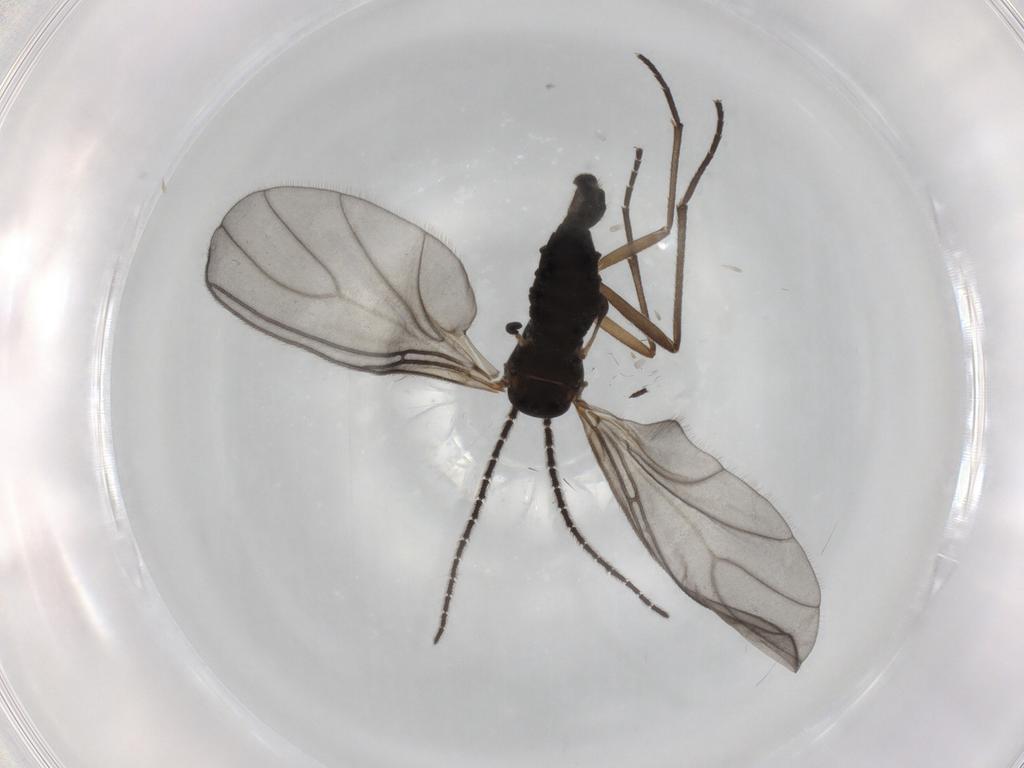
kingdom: Animalia
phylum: Arthropoda
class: Insecta
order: Diptera
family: Sciaridae
